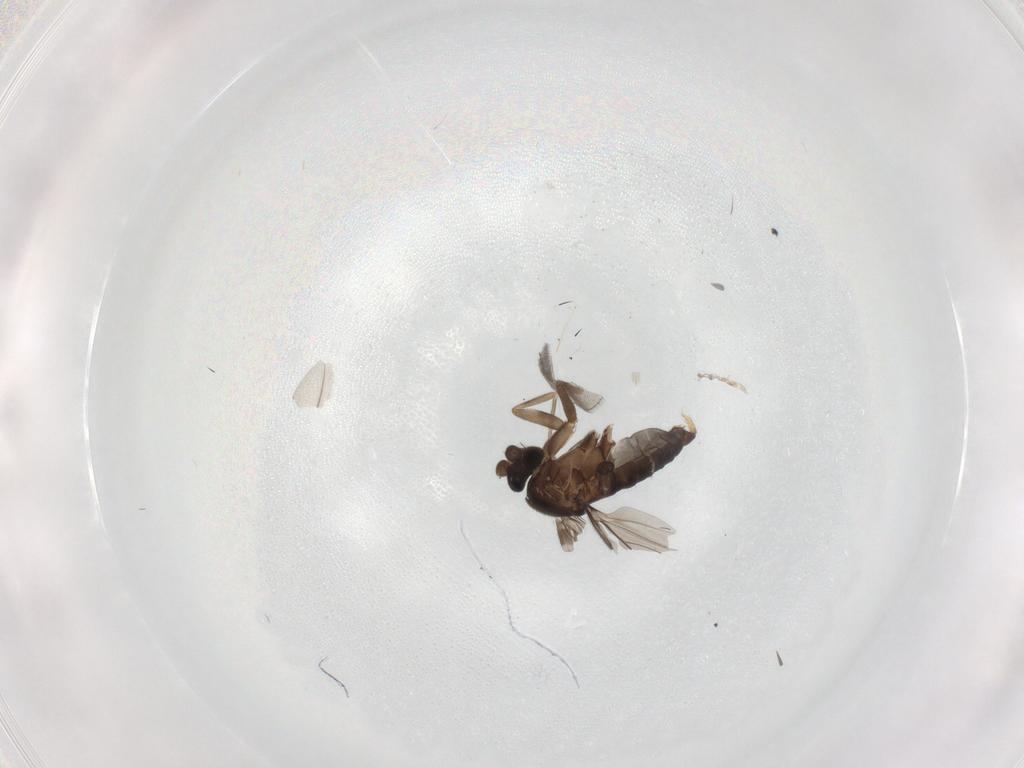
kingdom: Animalia
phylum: Arthropoda
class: Insecta
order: Diptera
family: Phoridae
